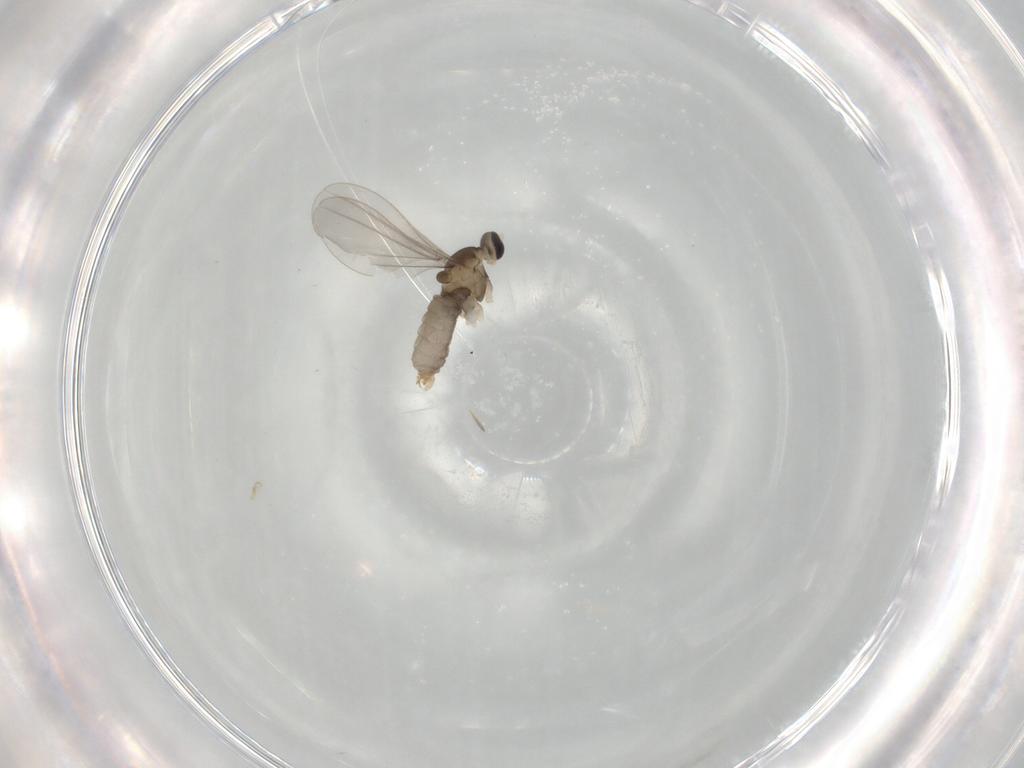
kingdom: Animalia
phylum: Arthropoda
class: Insecta
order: Diptera
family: Cecidomyiidae
